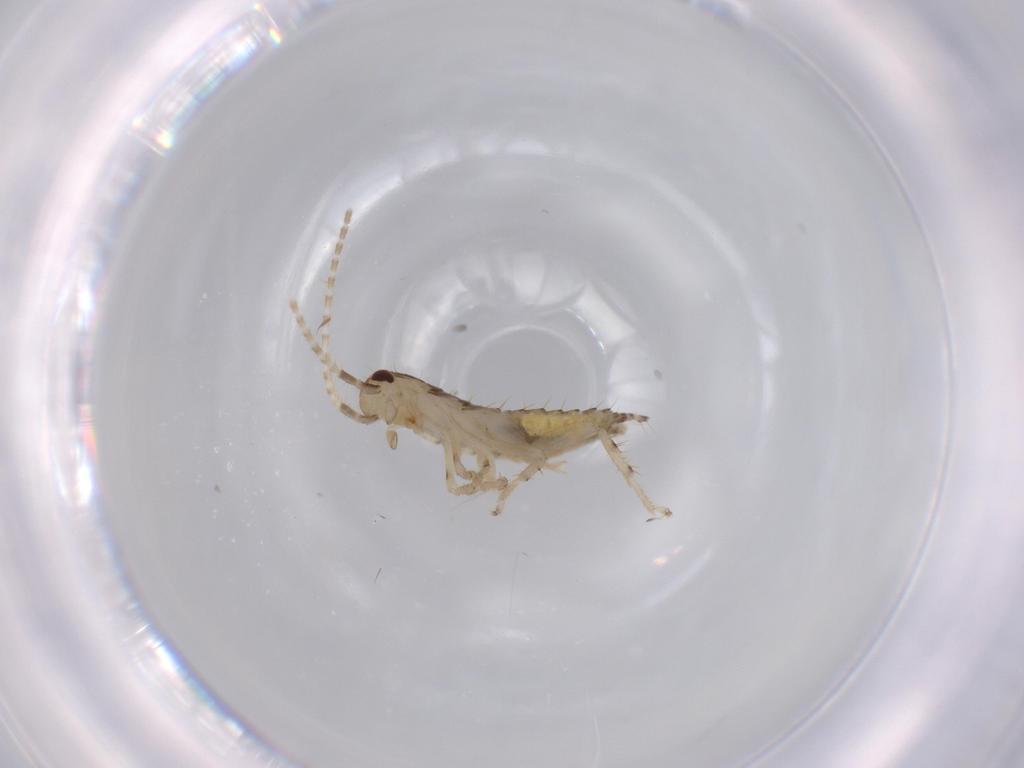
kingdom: Animalia
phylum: Arthropoda
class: Insecta
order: Blattodea
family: Ectobiidae
